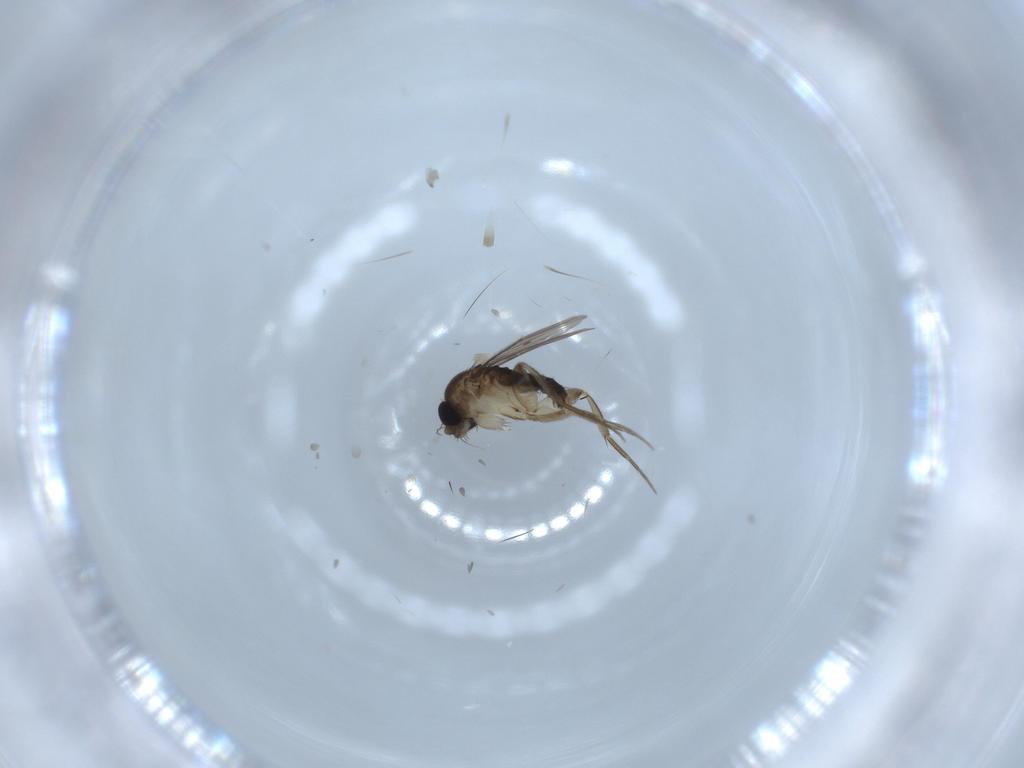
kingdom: Animalia
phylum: Arthropoda
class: Insecta
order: Diptera
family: Phoridae
